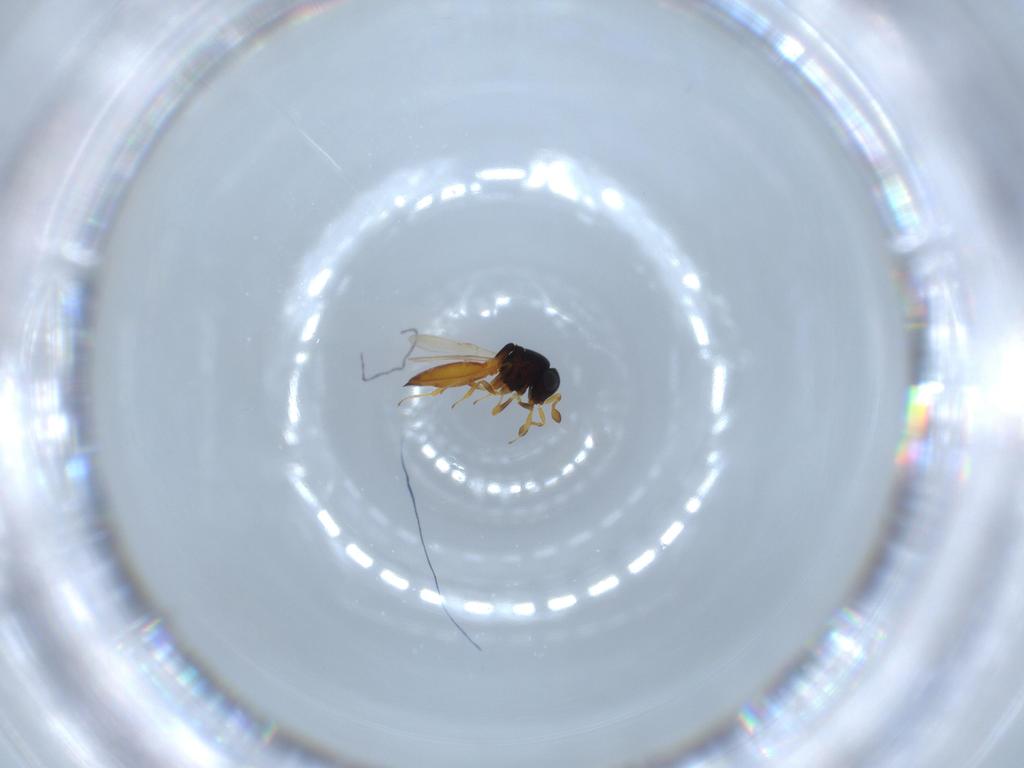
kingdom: Animalia
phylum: Arthropoda
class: Insecta
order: Hymenoptera
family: Scelionidae
